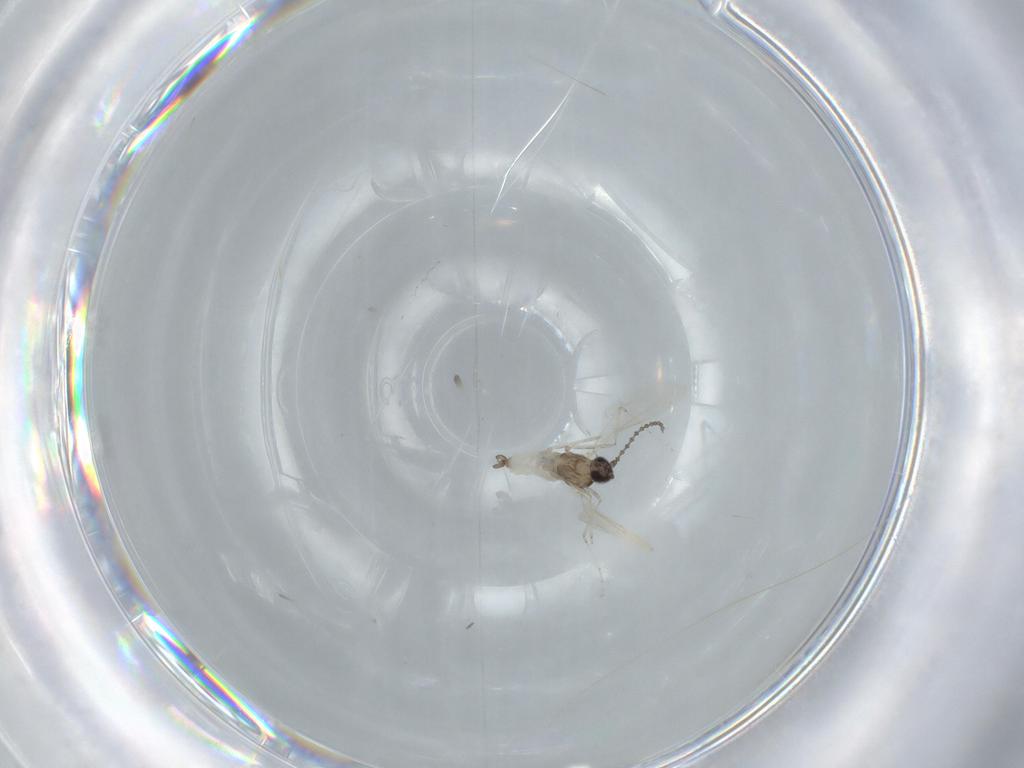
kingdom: Animalia
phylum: Arthropoda
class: Insecta
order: Diptera
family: Cecidomyiidae
